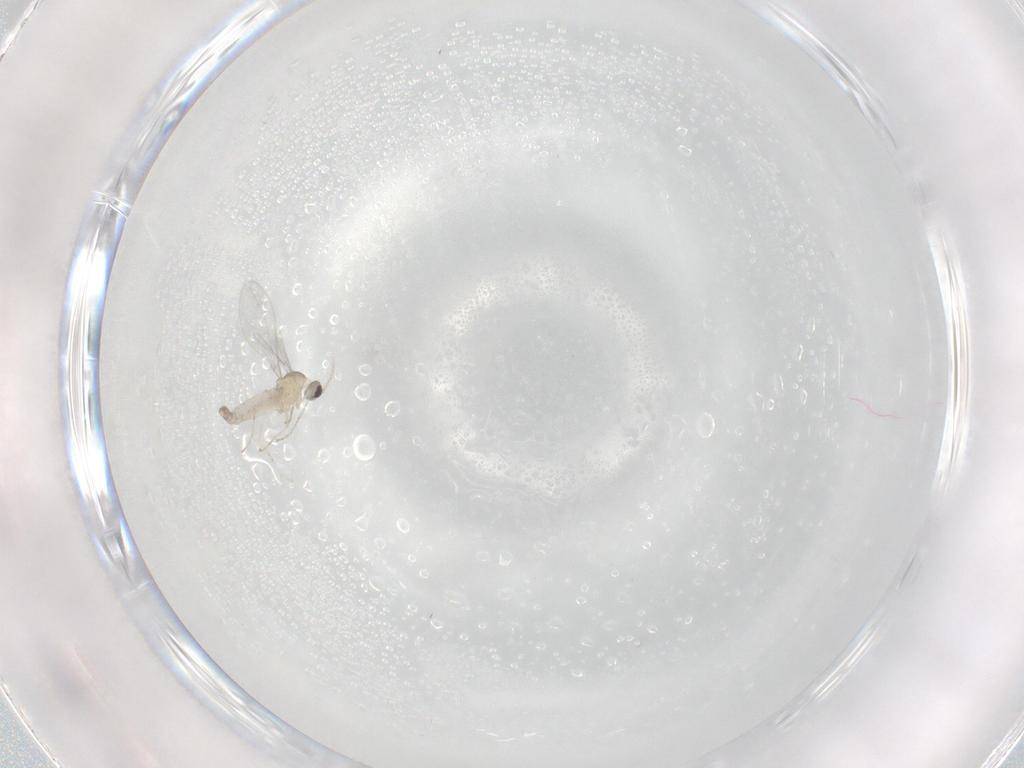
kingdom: Animalia
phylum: Arthropoda
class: Insecta
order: Diptera
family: Cecidomyiidae
